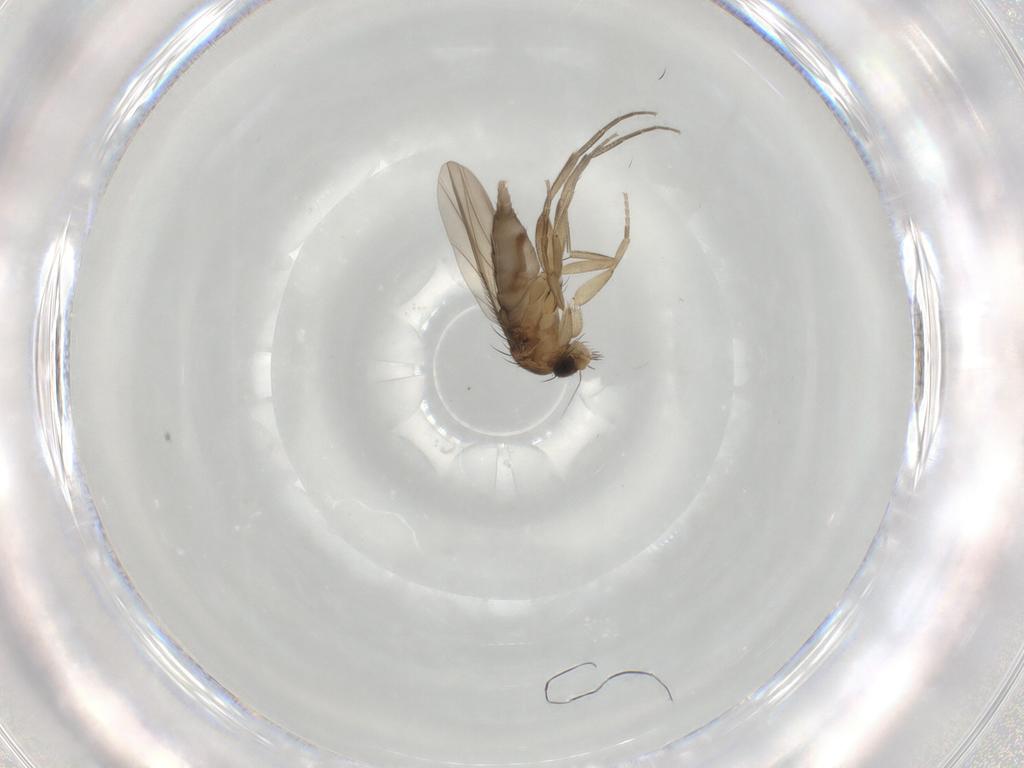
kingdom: Animalia
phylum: Arthropoda
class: Insecta
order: Diptera
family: Phoridae
